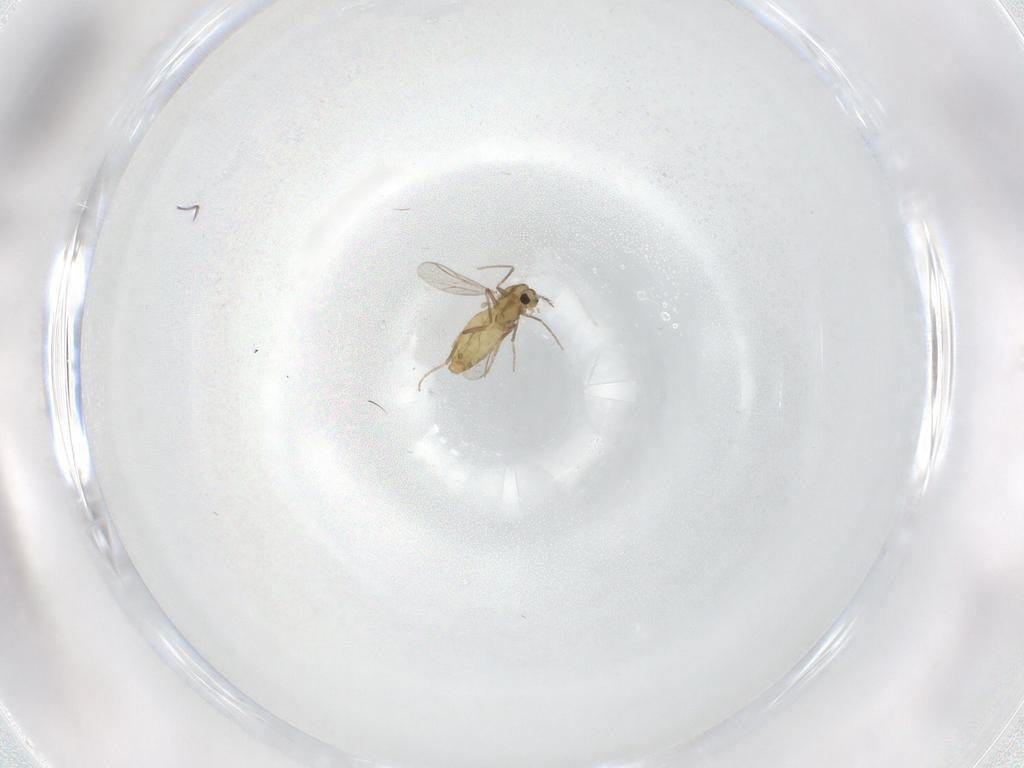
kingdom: Animalia
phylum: Arthropoda
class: Insecta
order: Diptera
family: Chironomidae
